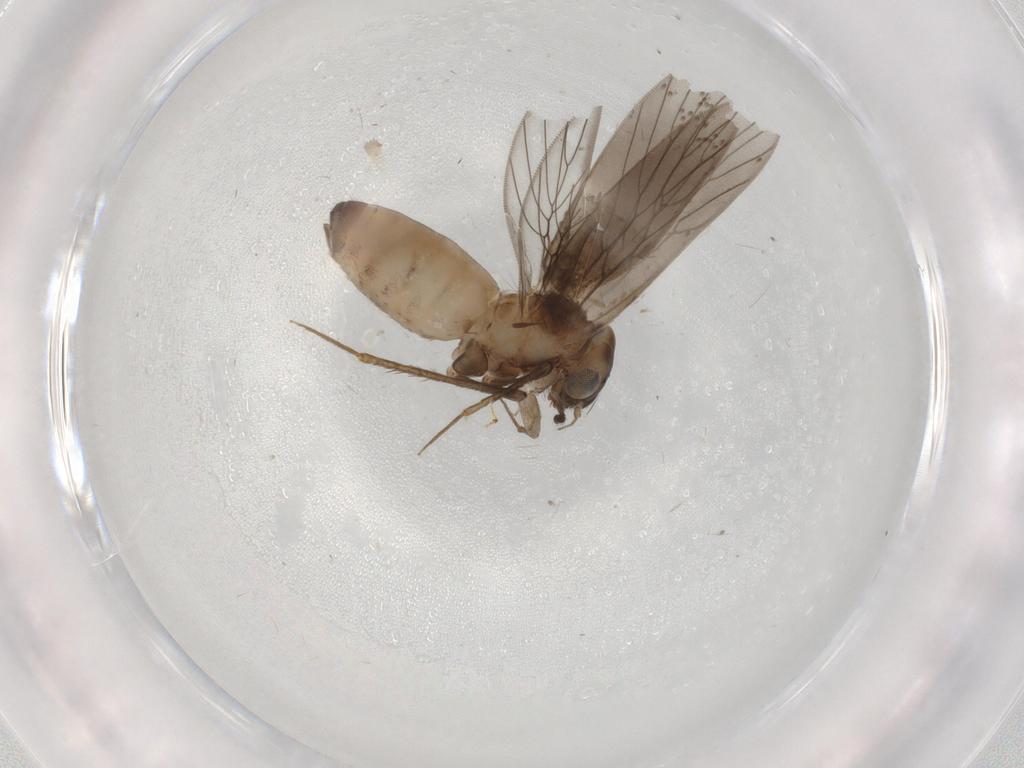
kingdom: Animalia
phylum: Arthropoda
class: Insecta
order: Psocodea
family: Lepidopsocidae
